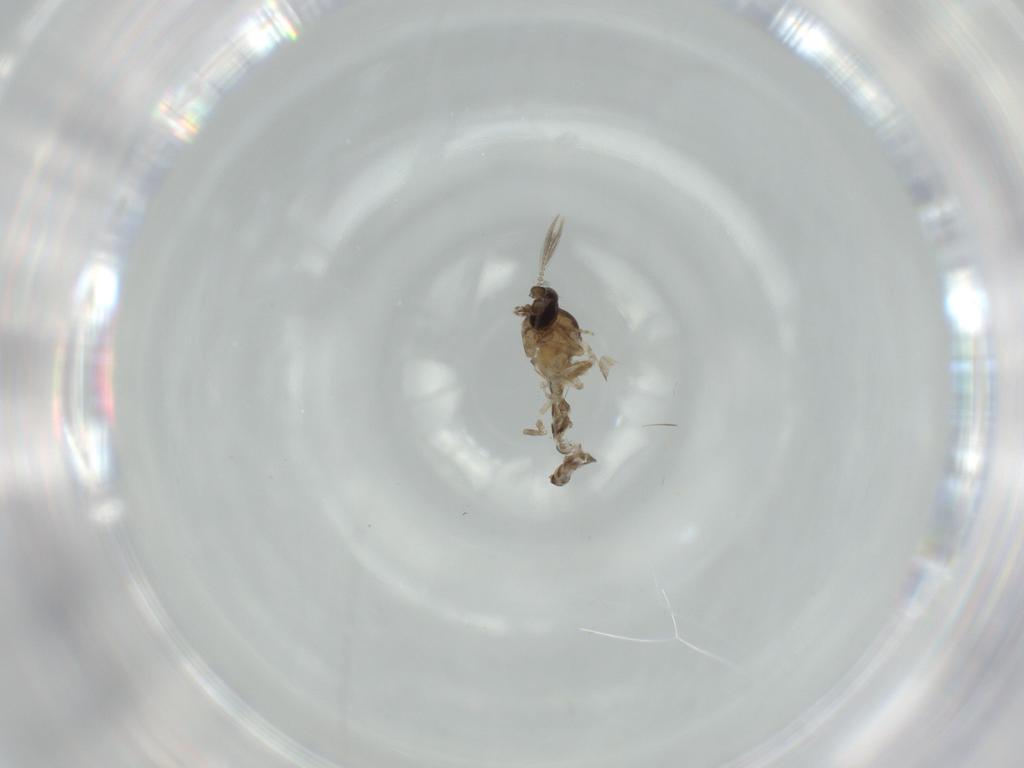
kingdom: Animalia
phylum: Arthropoda
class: Insecta
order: Diptera
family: Ceratopogonidae
